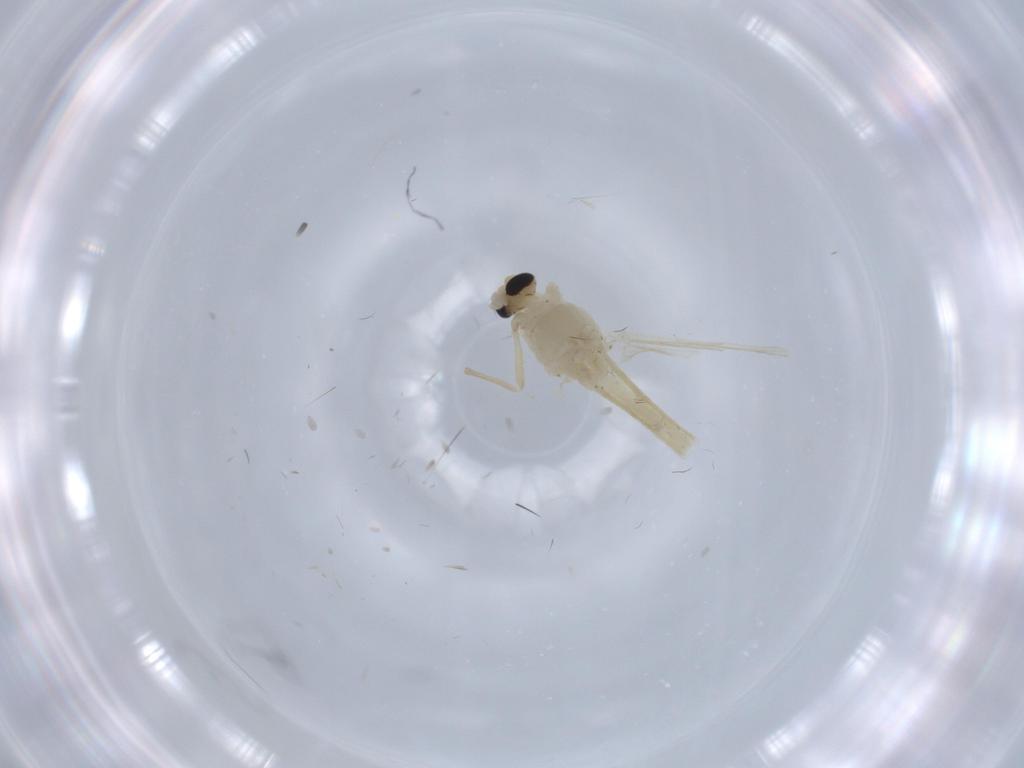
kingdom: Animalia
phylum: Arthropoda
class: Insecta
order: Diptera
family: Chironomidae
